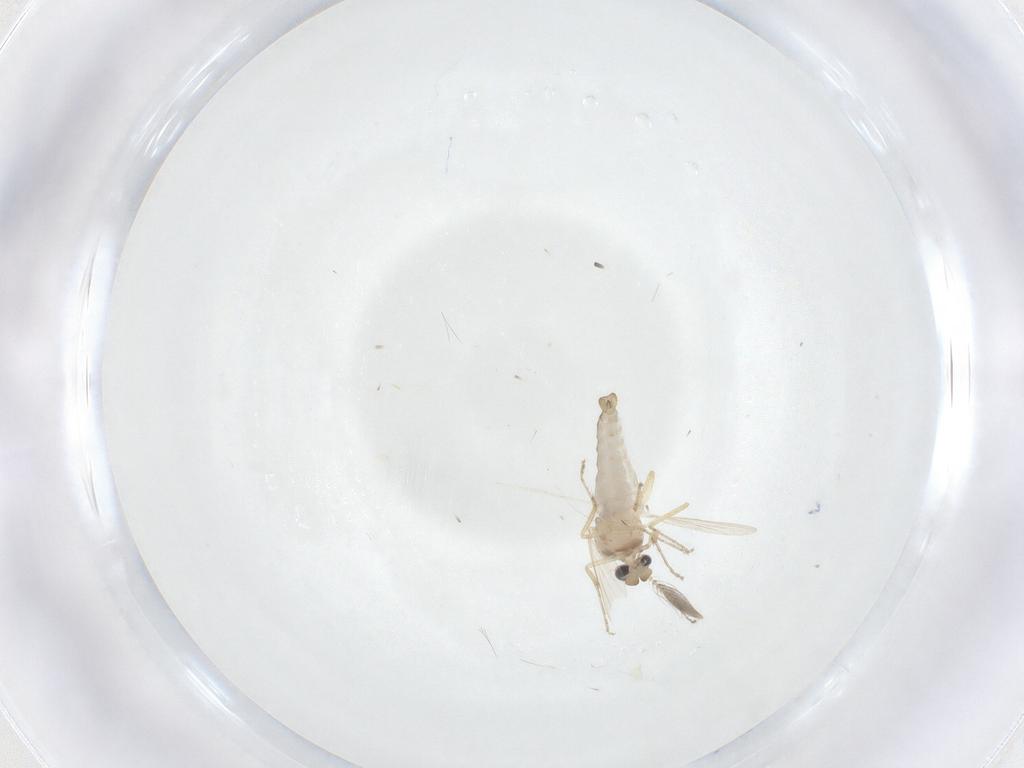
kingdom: Animalia
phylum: Arthropoda
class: Insecta
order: Diptera
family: Ceratopogonidae
